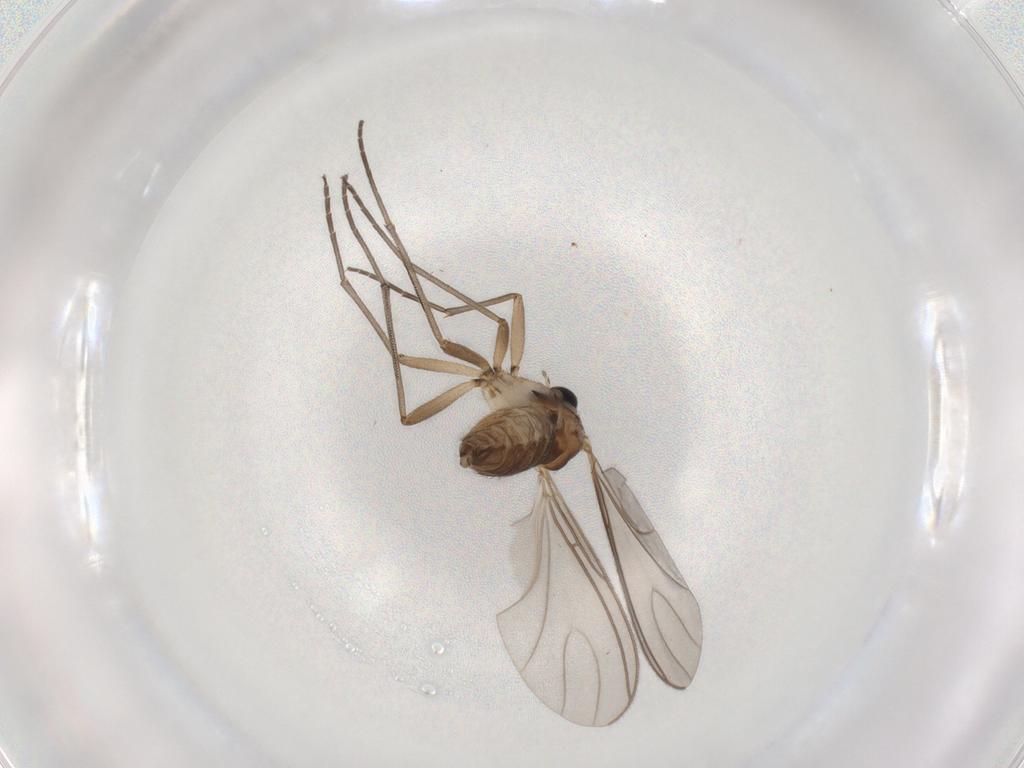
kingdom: Animalia
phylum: Arthropoda
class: Insecta
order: Diptera
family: Sciaridae
